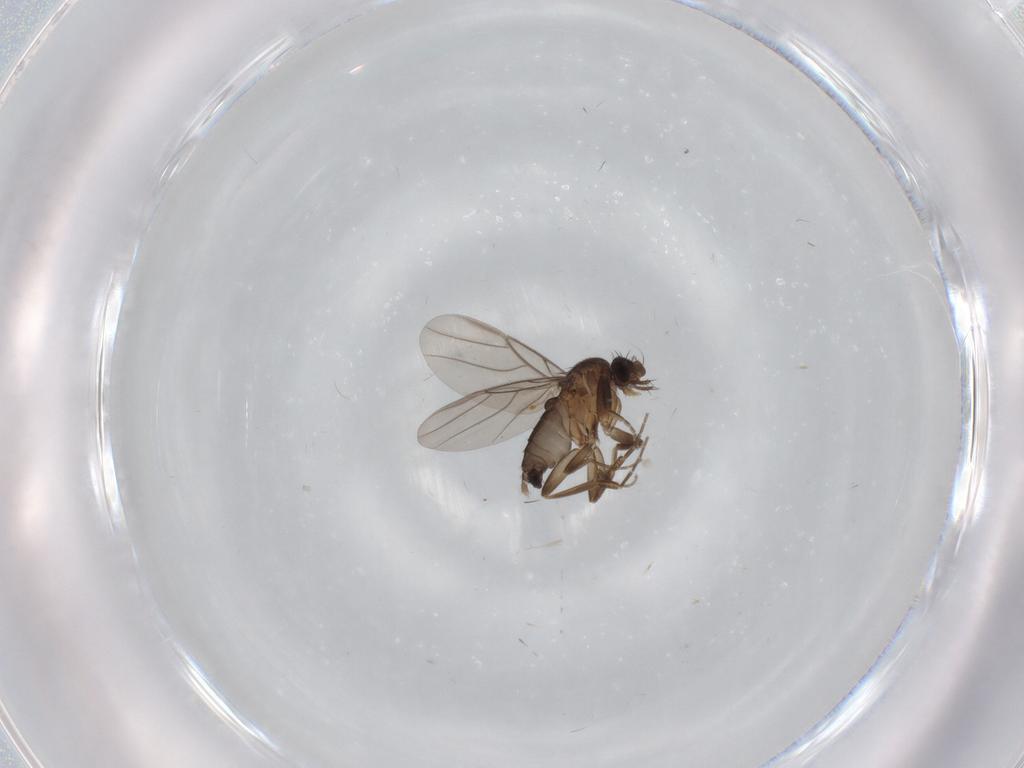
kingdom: Animalia
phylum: Arthropoda
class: Insecta
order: Diptera
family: Phoridae
